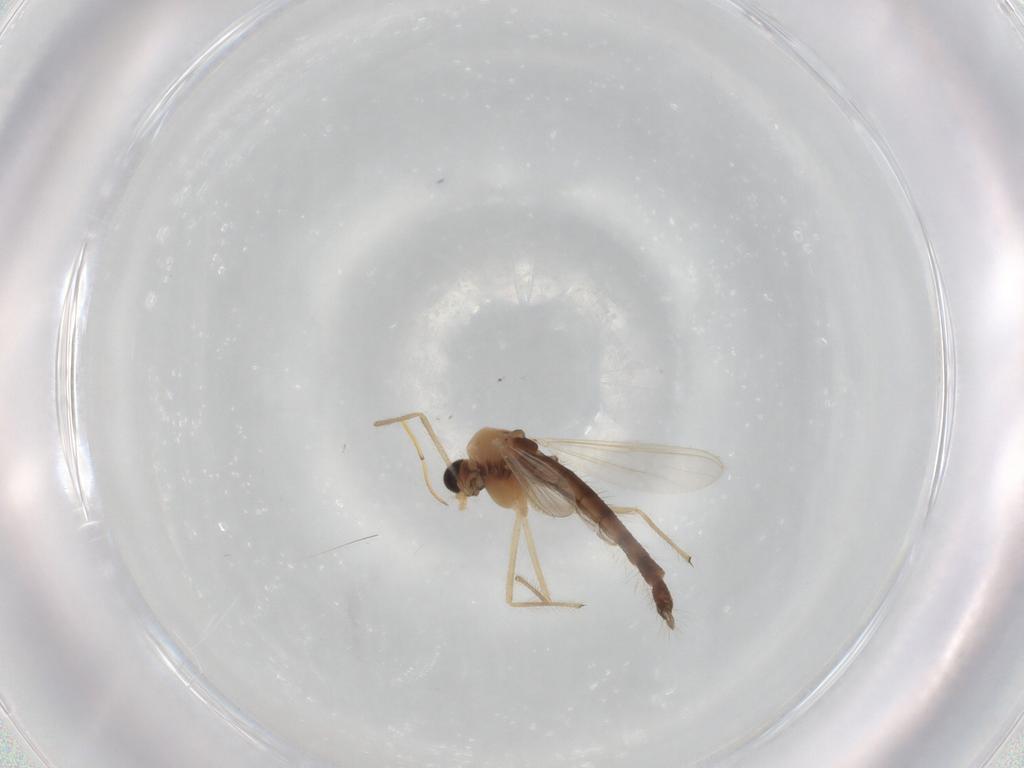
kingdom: Animalia
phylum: Arthropoda
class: Insecta
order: Diptera
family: Chironomidae
